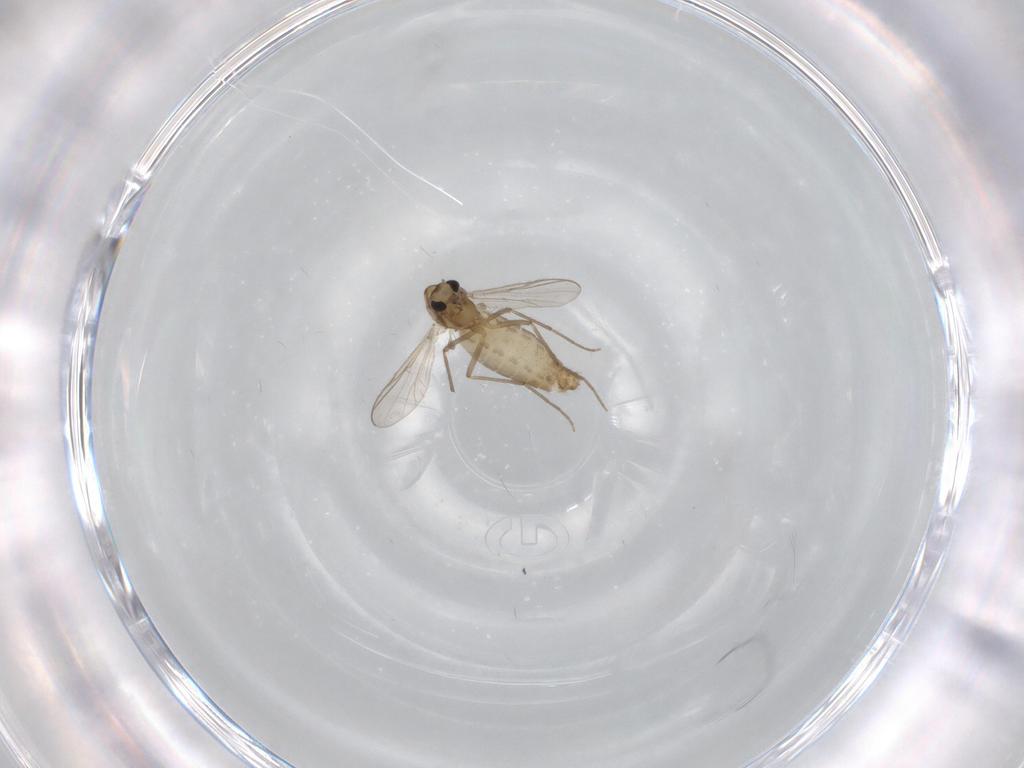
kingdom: Animalia
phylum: Arthropoda
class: Insecta
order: Diptera
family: Chironomidae
